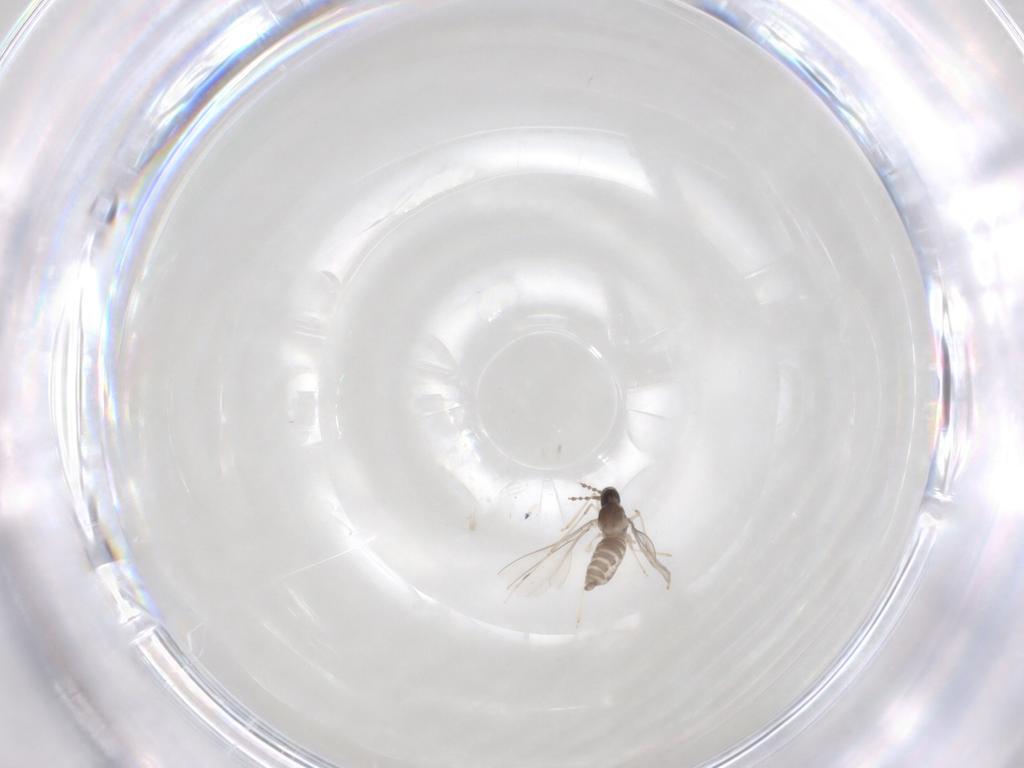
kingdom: Animalia
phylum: Arthropoda
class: Insecta
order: Diptera
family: Cecidomyiidae
